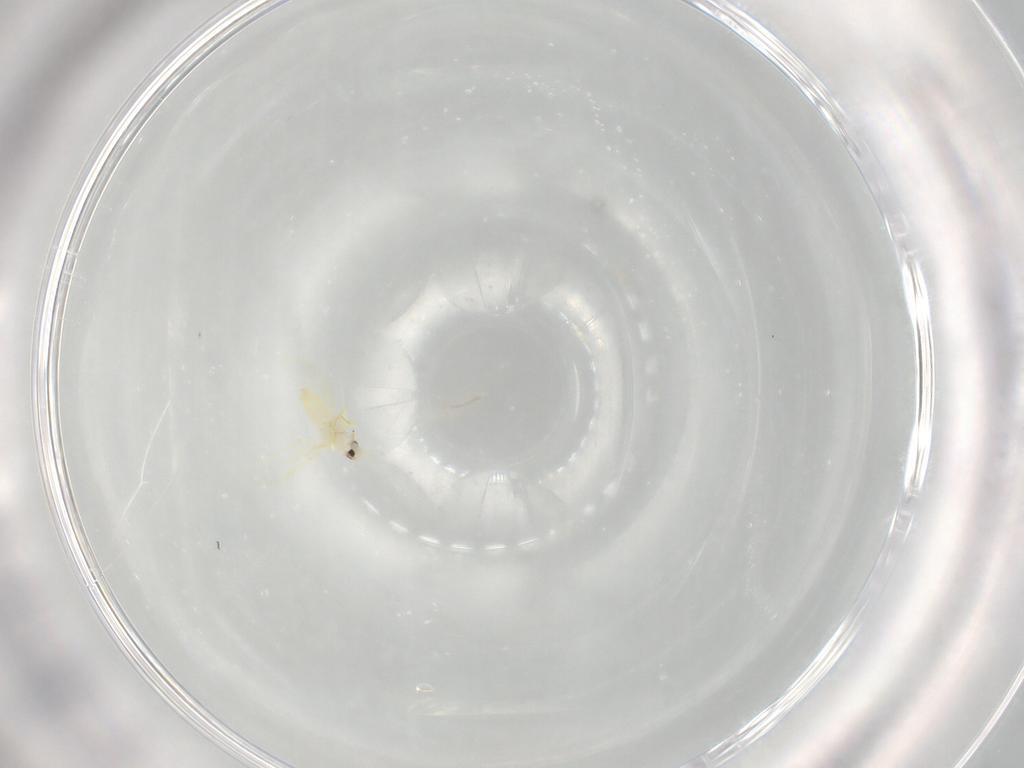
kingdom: Animalia
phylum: Arthropoda
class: Insecta
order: Hemiptera
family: Aleyrodidae
